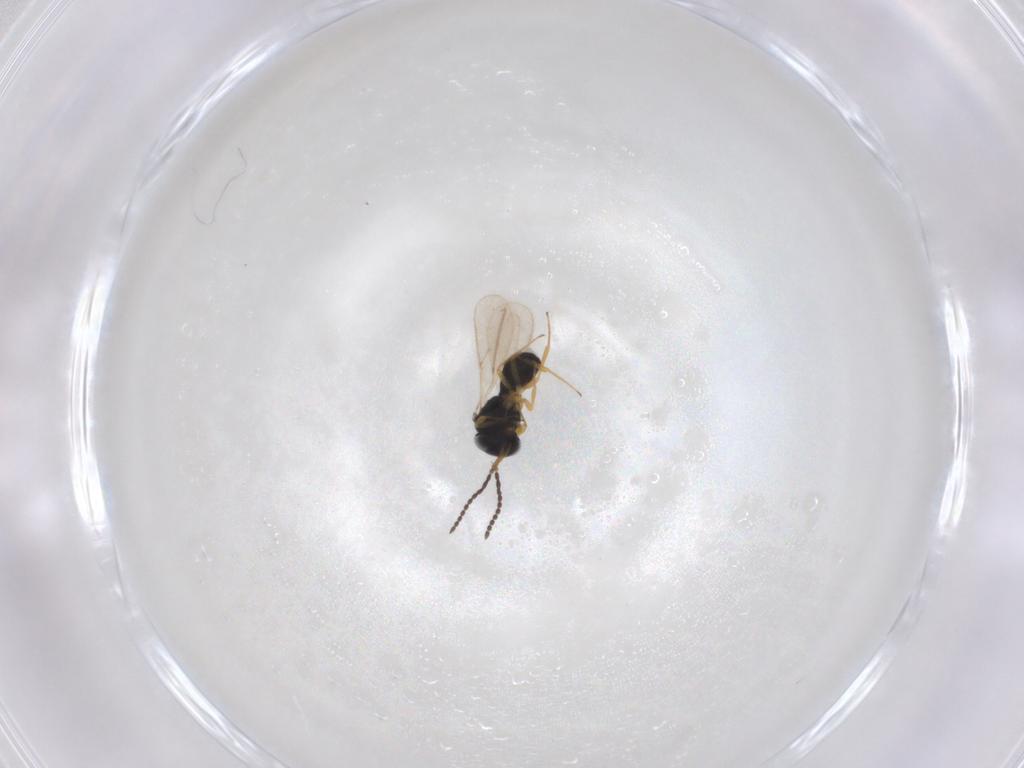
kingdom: Animalia
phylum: Arthropoda
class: Insecta
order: Hymenoptera
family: Scelionidae
